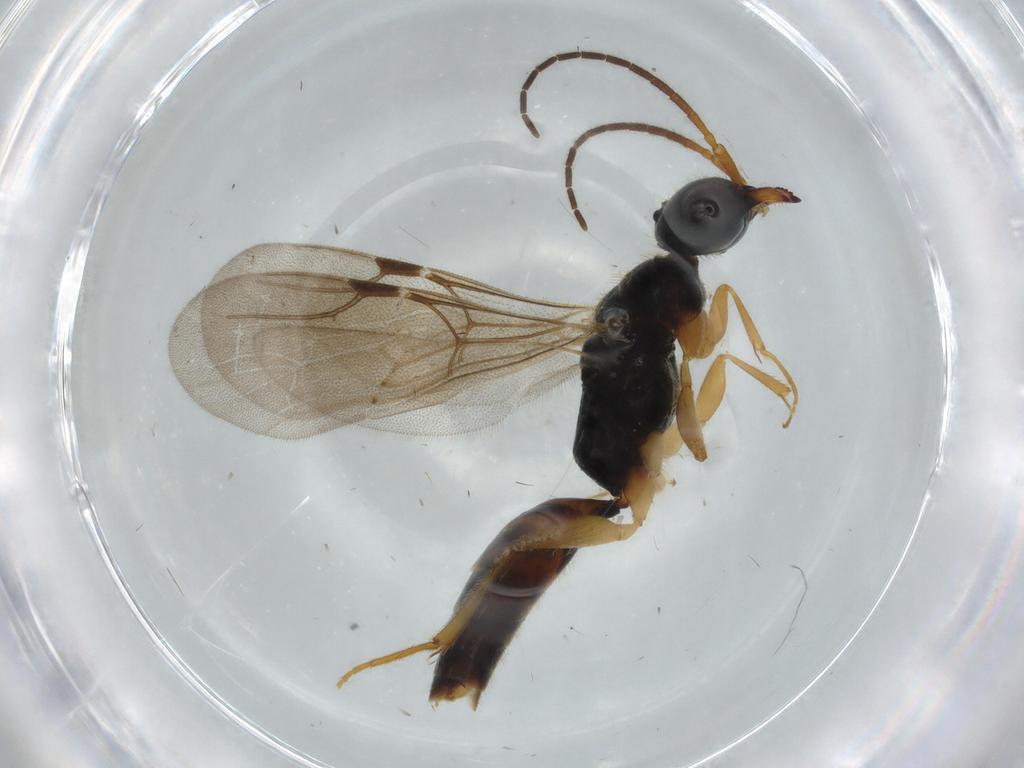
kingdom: Animalia
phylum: Arthropoda
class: Insecta
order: Hymenoptera
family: Bethylidae
